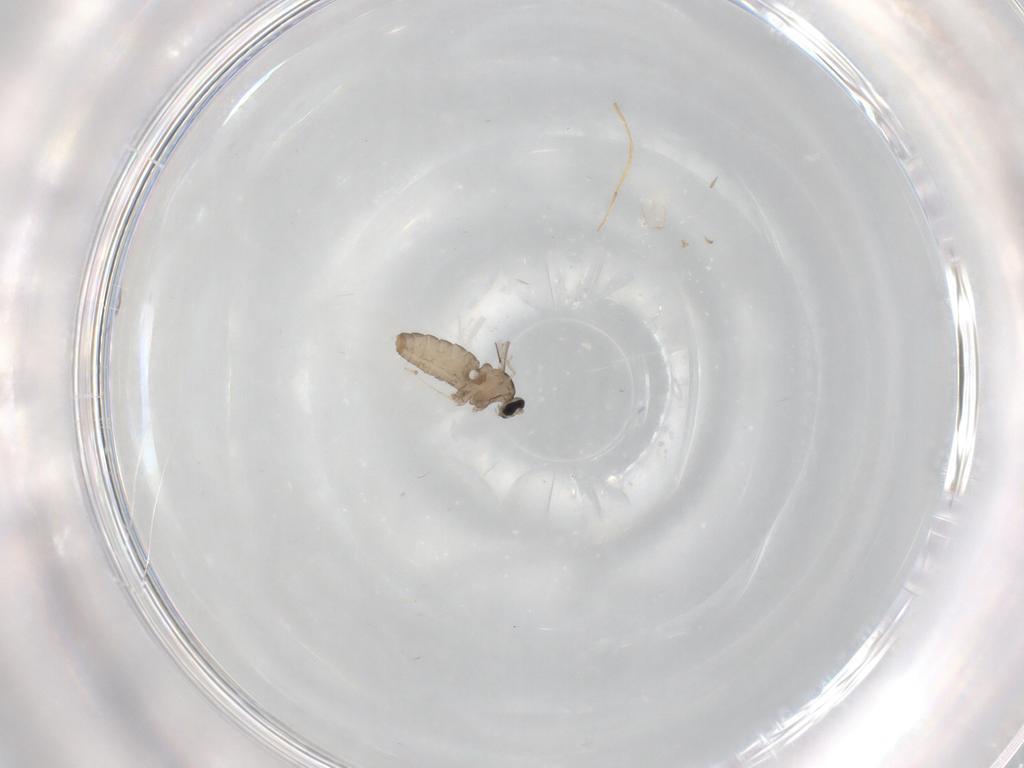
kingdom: Animalia
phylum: Arthropoda
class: Insecta
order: Diptera
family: Cecidomyiidae
